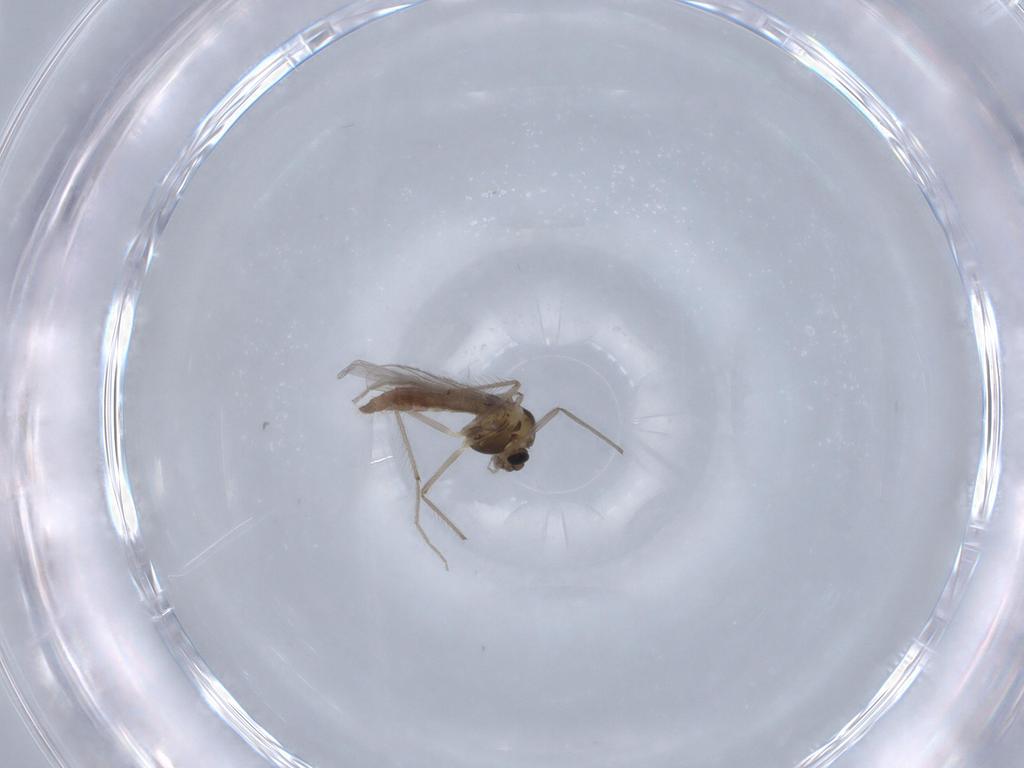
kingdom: Animalia
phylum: Arthropoda
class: Insecta
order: Diptera
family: Chironomidae
